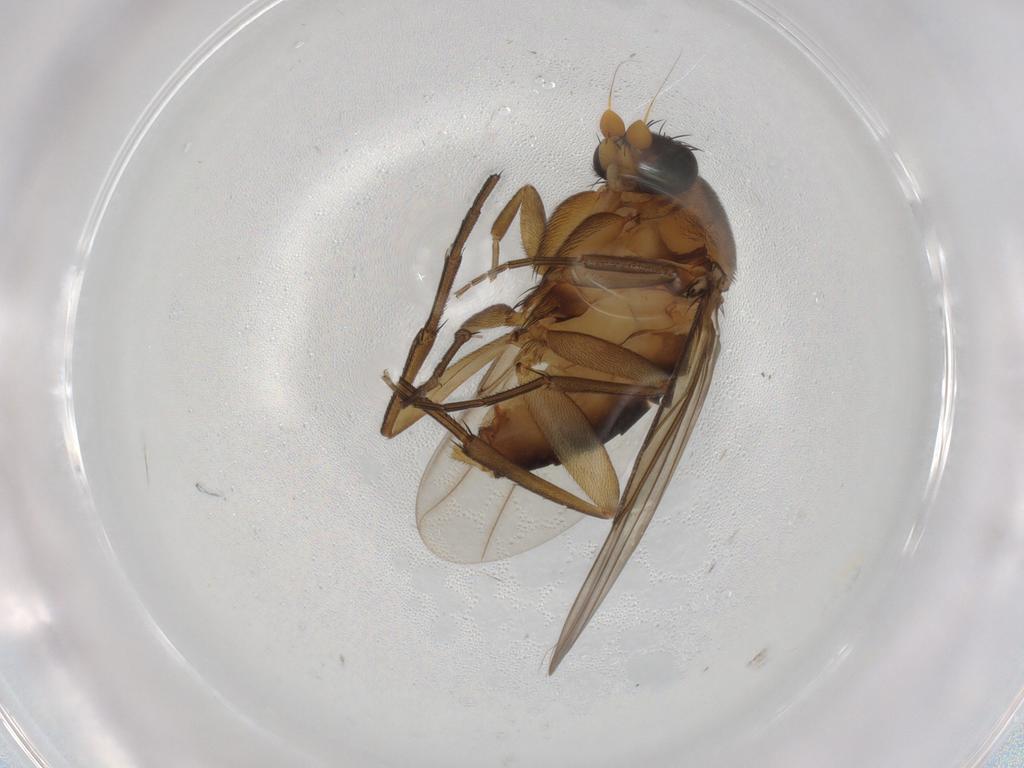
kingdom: Animalia
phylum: Arthropoda
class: Insecta
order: Diptera
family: Phoridae
